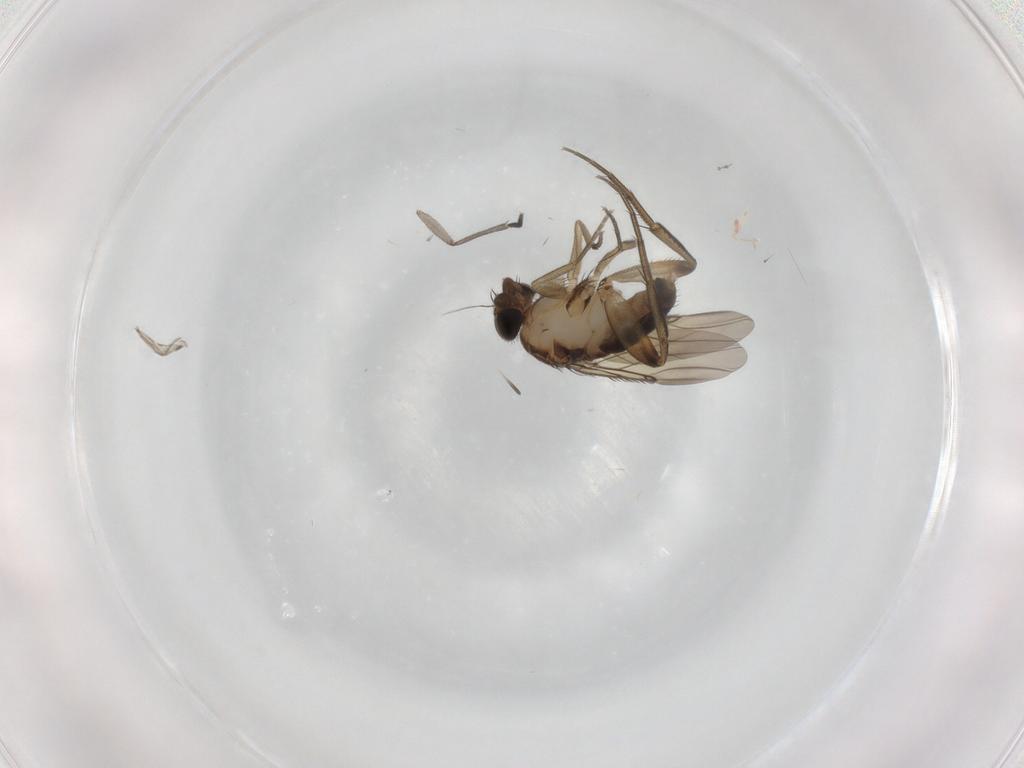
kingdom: Animalia
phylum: Arthropoda
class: Insecta
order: Diptera
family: Phoridae
